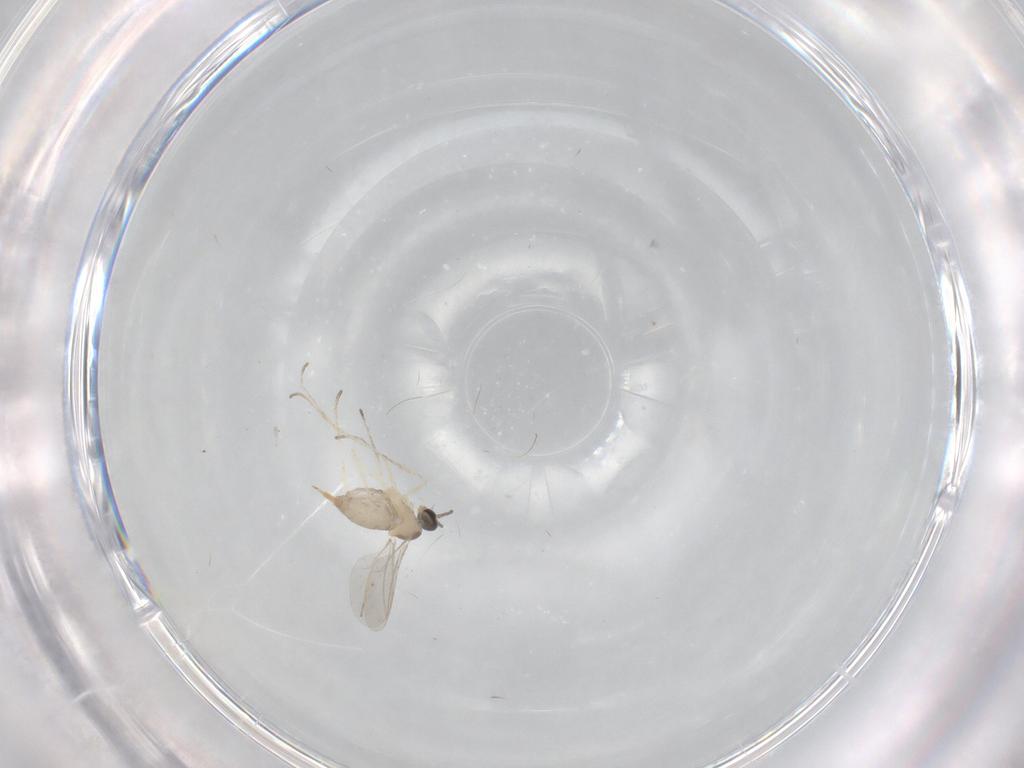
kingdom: Animalia
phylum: Arthropoda
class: Insecta
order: Diptera
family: Cecidomyiidae
